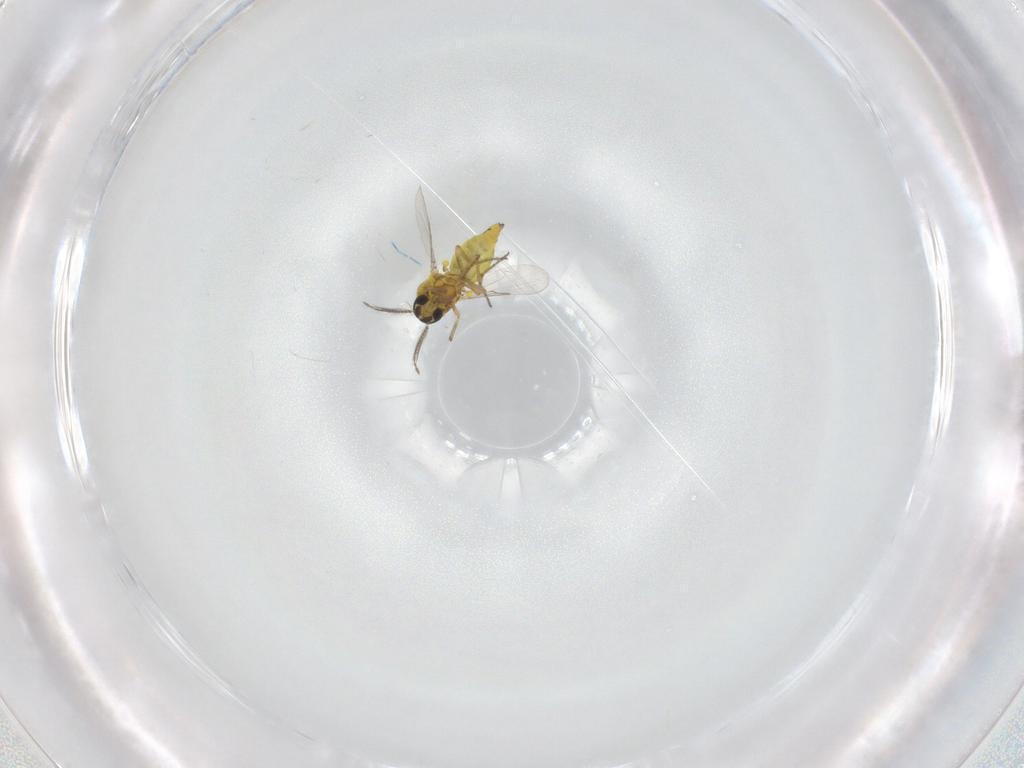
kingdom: Animalia
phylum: Arthropoda
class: Insecta
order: Diptera
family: Ceratopogonidae
